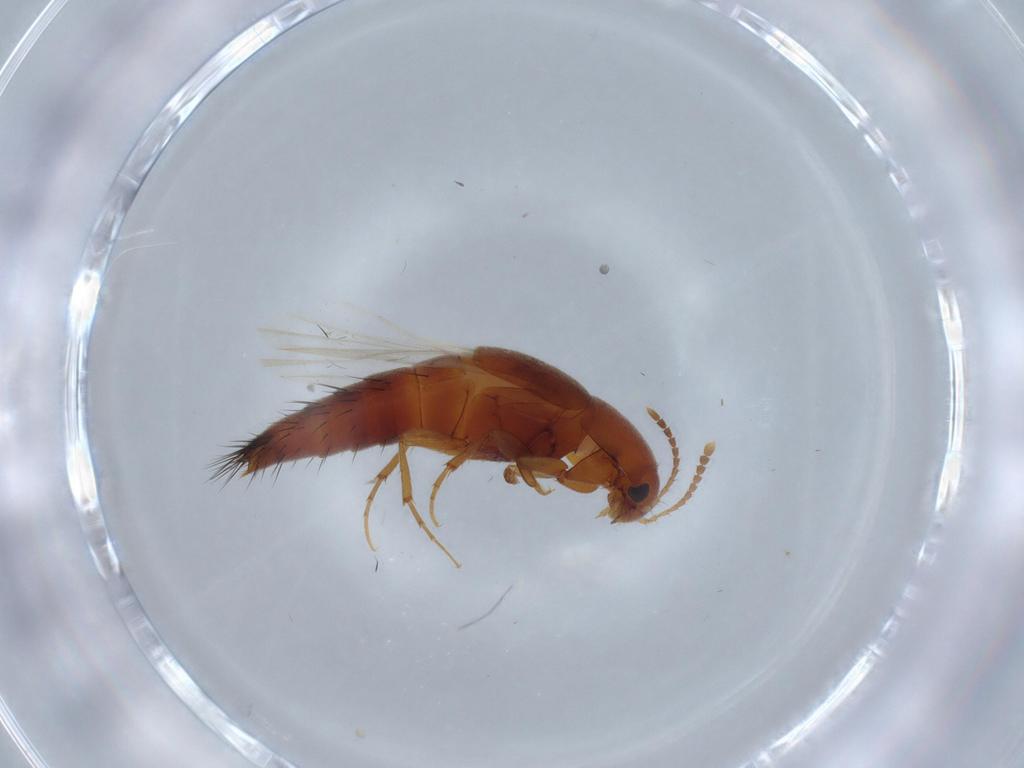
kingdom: Animalia
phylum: Arthropoda
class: Insecta
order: Coleoptera
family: Staphylinidae
